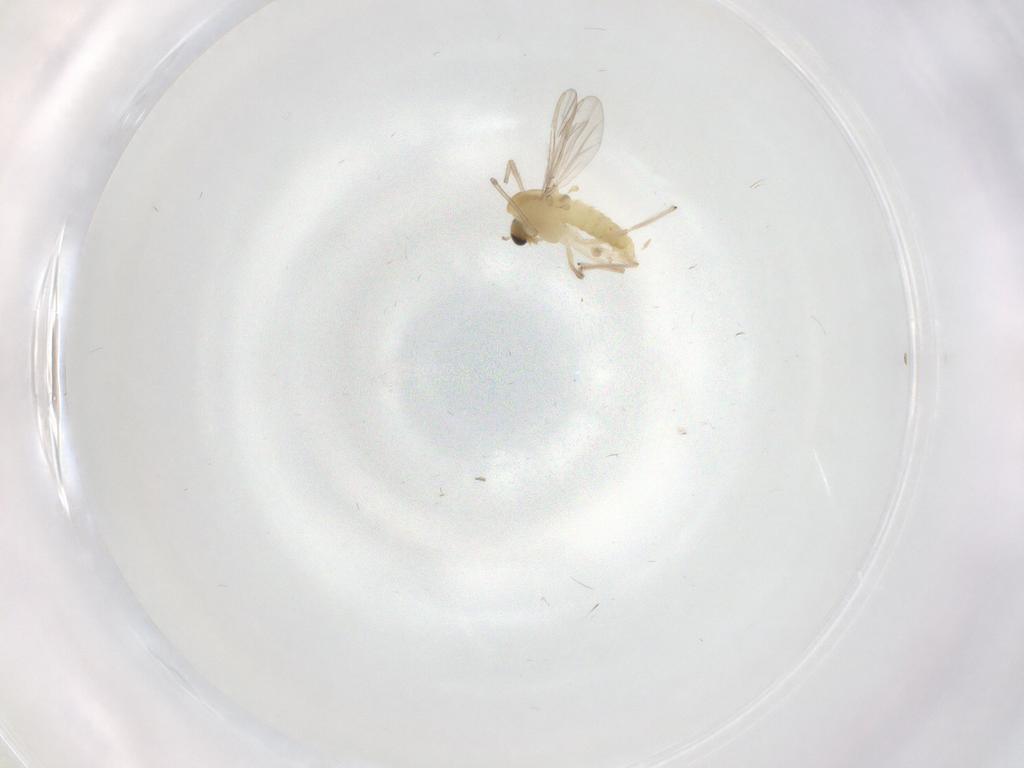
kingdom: Animalia
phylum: Arthropoda
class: Insecta
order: Diptera
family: Chironomidae
